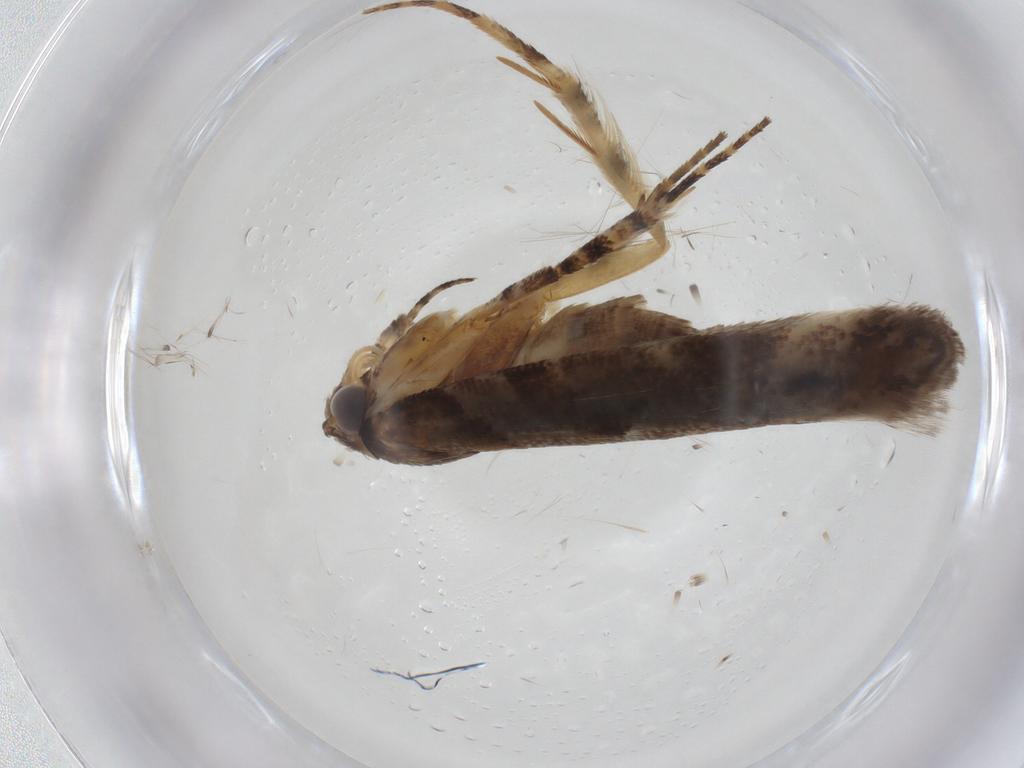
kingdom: Animalia
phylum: Arthropoda
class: Insecta
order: Lepidoptera
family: Gelechiidae
